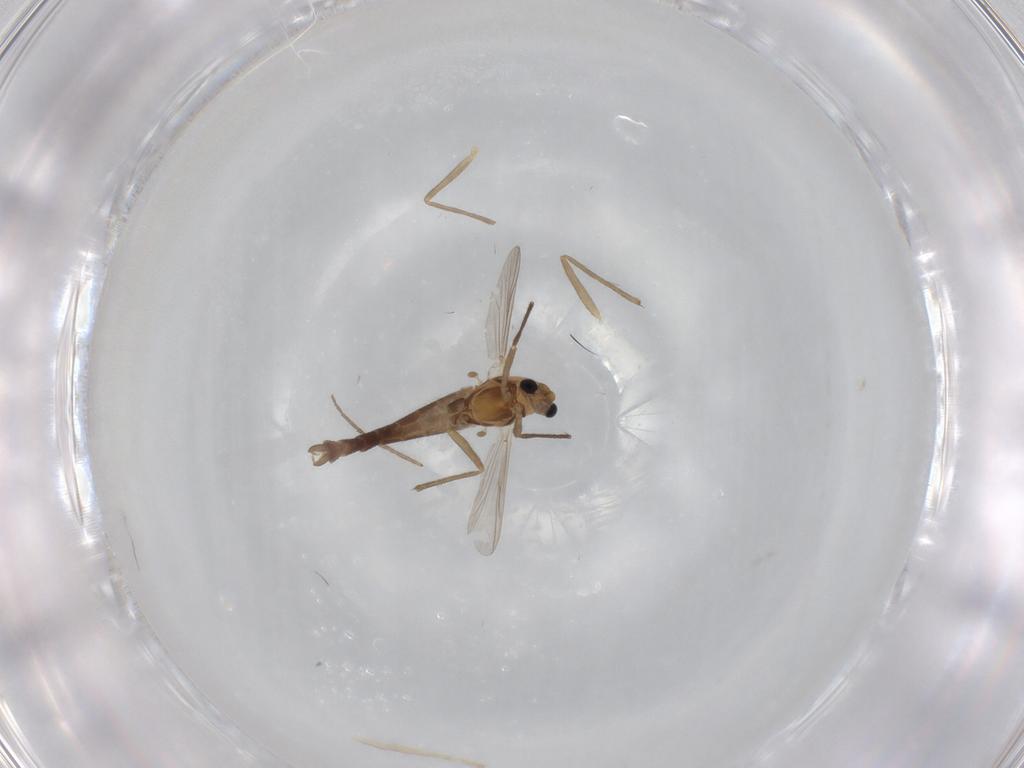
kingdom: Animalia
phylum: Arthropoda
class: Insecta
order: Diptera
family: Chironomidae
